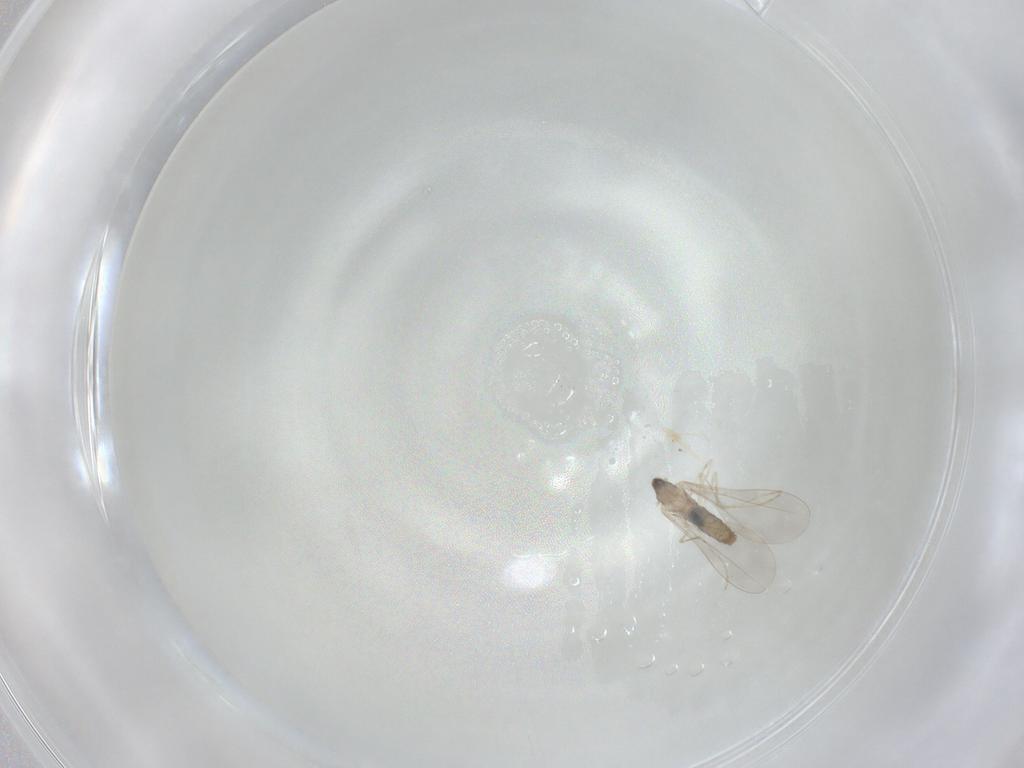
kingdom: Animalia
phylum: Arthropoda
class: Insecta
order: Diptera
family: Cecidomyiidae
